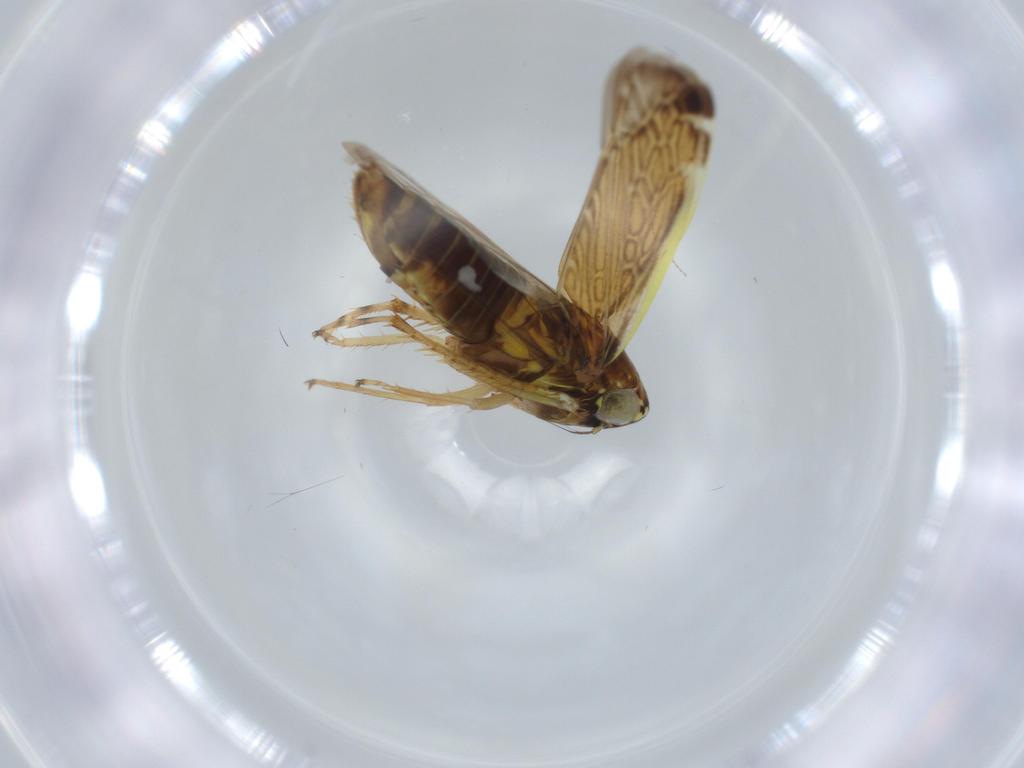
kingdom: Animalia
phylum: Arthropoda
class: Insecta
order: Hemiptera
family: Cicadellidae
